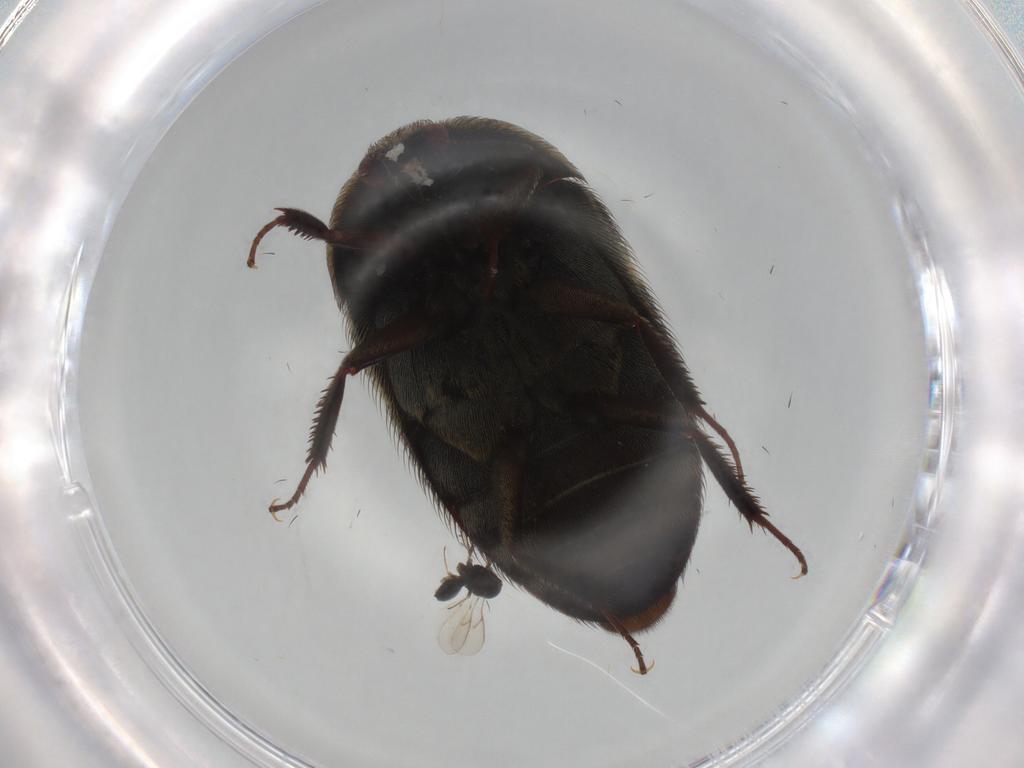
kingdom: Animalia
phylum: Arthropoda
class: Insecta
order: Coleoptera
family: Dermestidae
